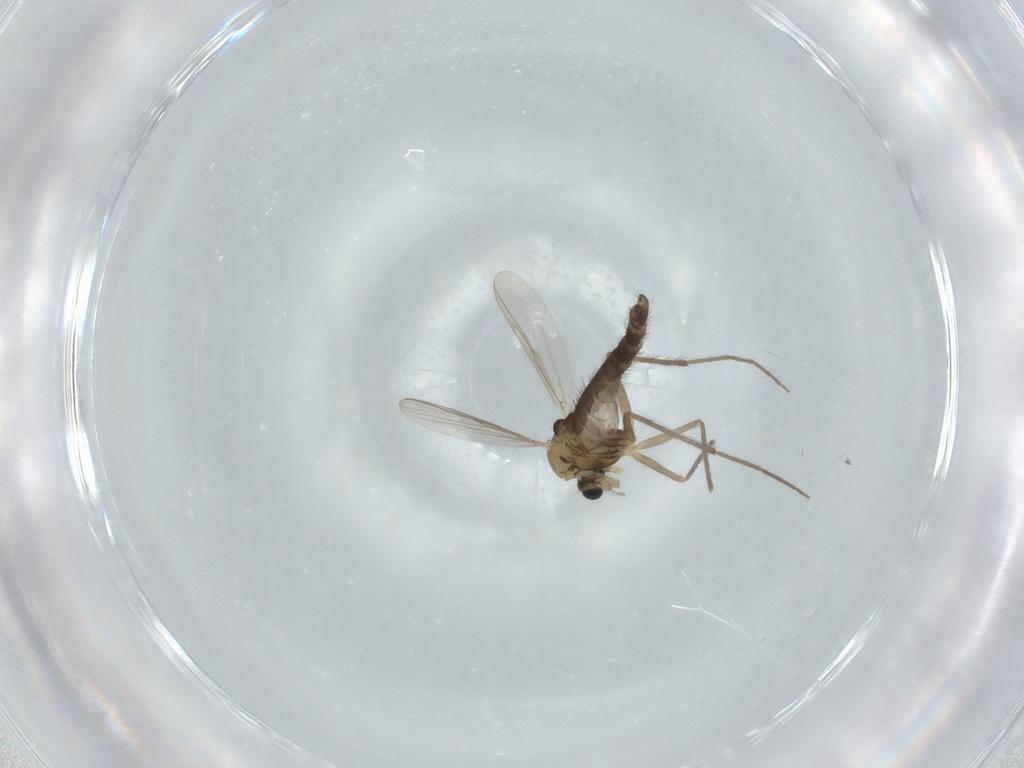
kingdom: Animalia
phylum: Arthropoda
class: Insecta
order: Diptera
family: Chironomidae
